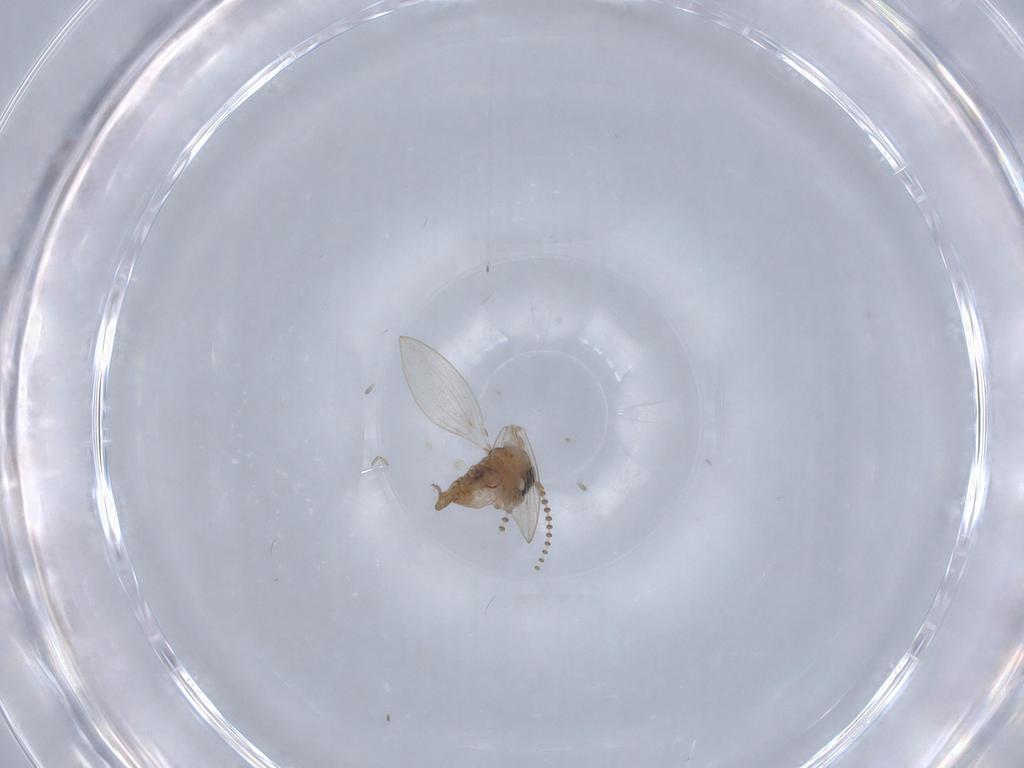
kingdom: Animalia
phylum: Arthropoda
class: Insecta
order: Diptera
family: Psychodidae
